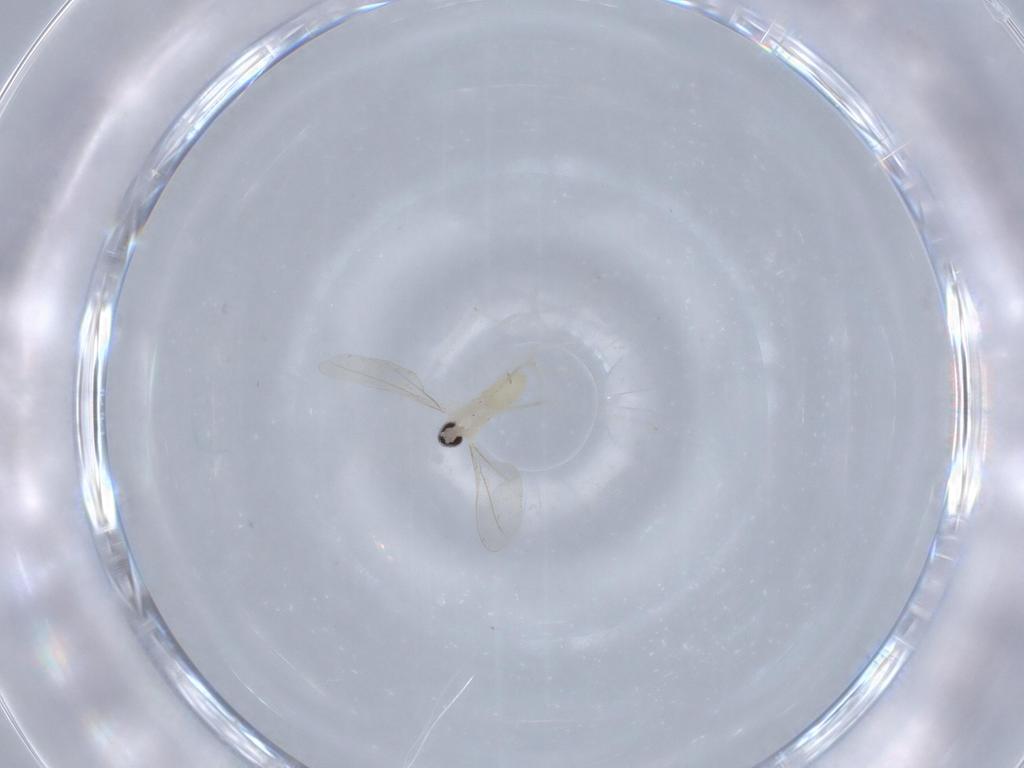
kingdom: Animalia
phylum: Arthropoda
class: Insecta
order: Diptera
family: Cecidomyiidae
